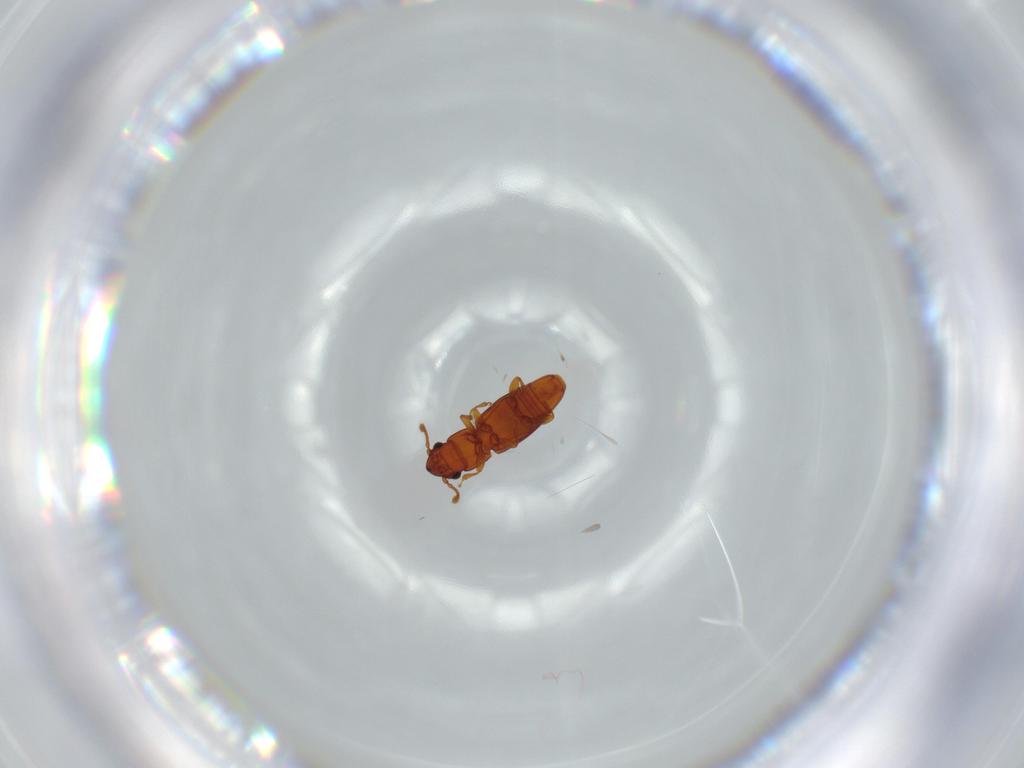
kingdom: Animalia
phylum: Arthropoda
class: Insecta
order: Coleoptera
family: Smicripidae
